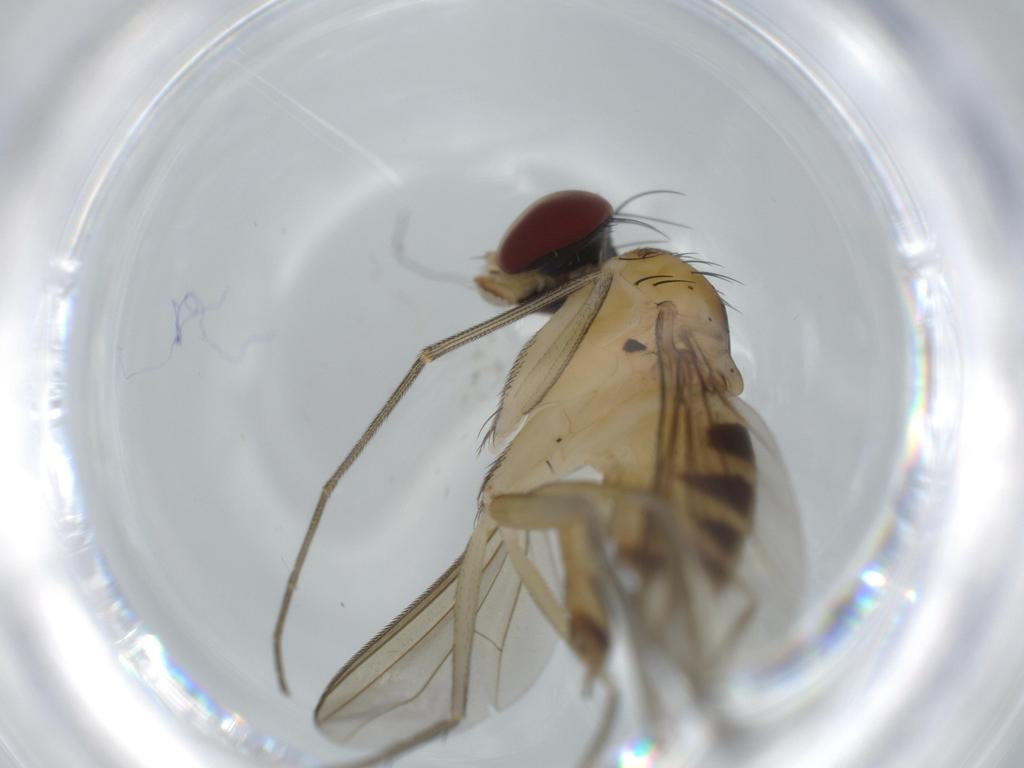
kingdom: Animalia
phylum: Arthropoda
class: Insecta
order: Diptera
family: Dolichopodidae
